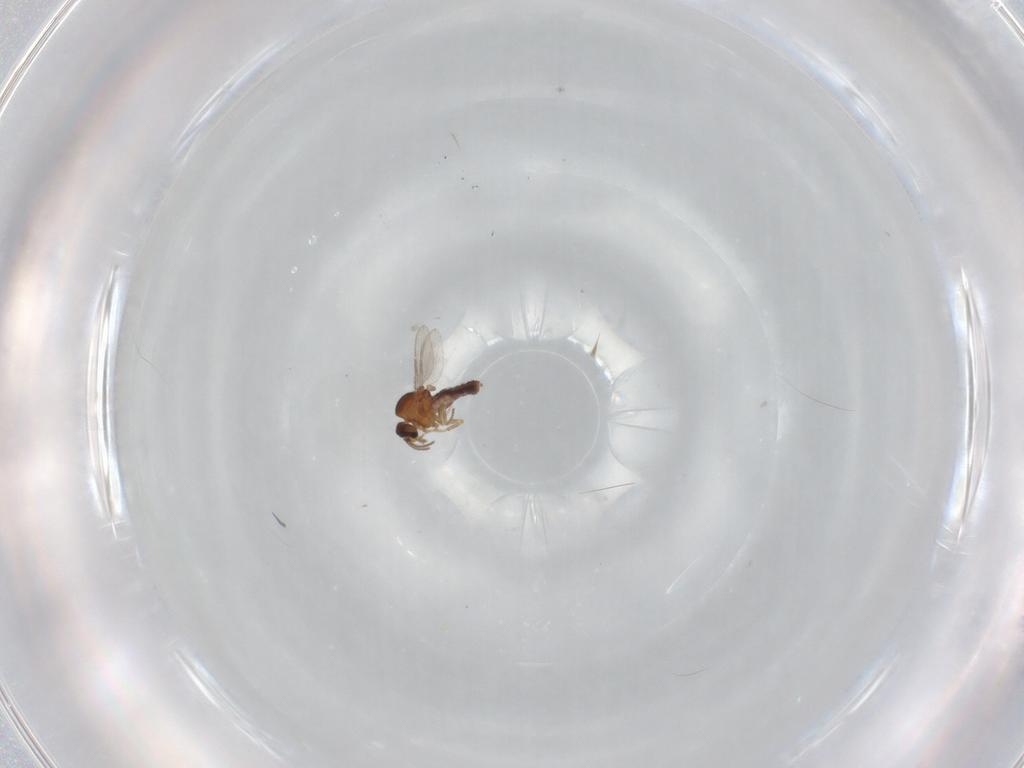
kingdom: Animalia
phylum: Arthropoda
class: Insecta
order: Diptera
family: Ceratopogonidae
